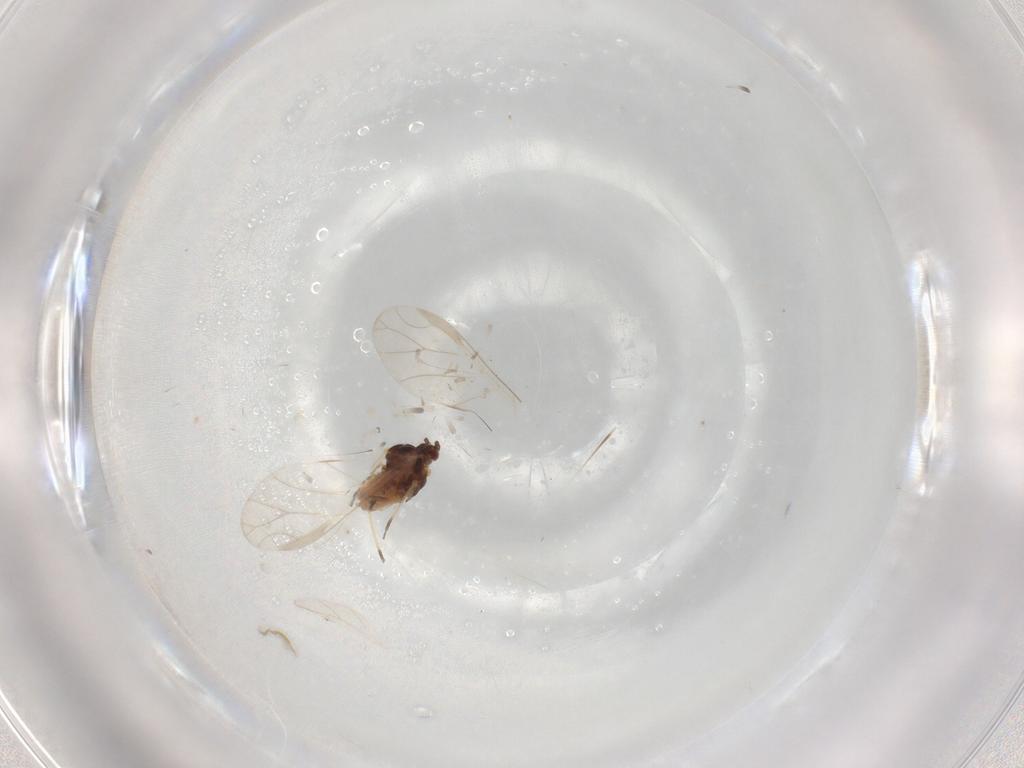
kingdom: Animalia
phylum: Arthropoda
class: Insecta
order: Hemiptera
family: Aphididae
